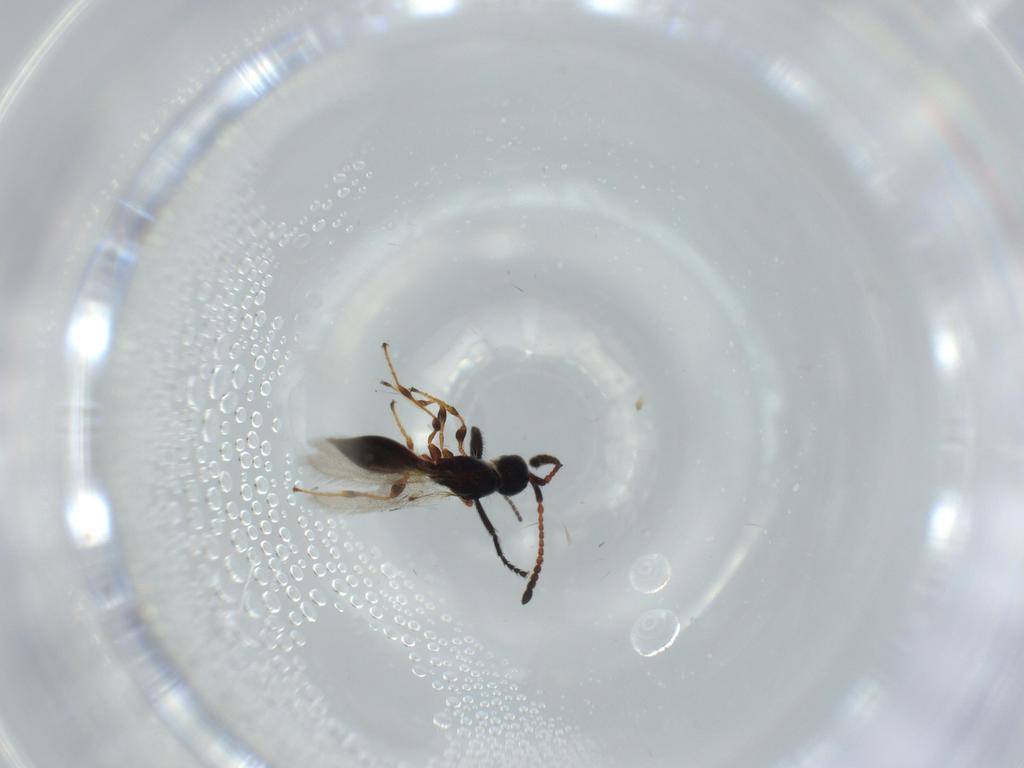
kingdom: Animalia
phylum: Arthropoda
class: Insecta
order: Hymenoptera
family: Diapriidae
